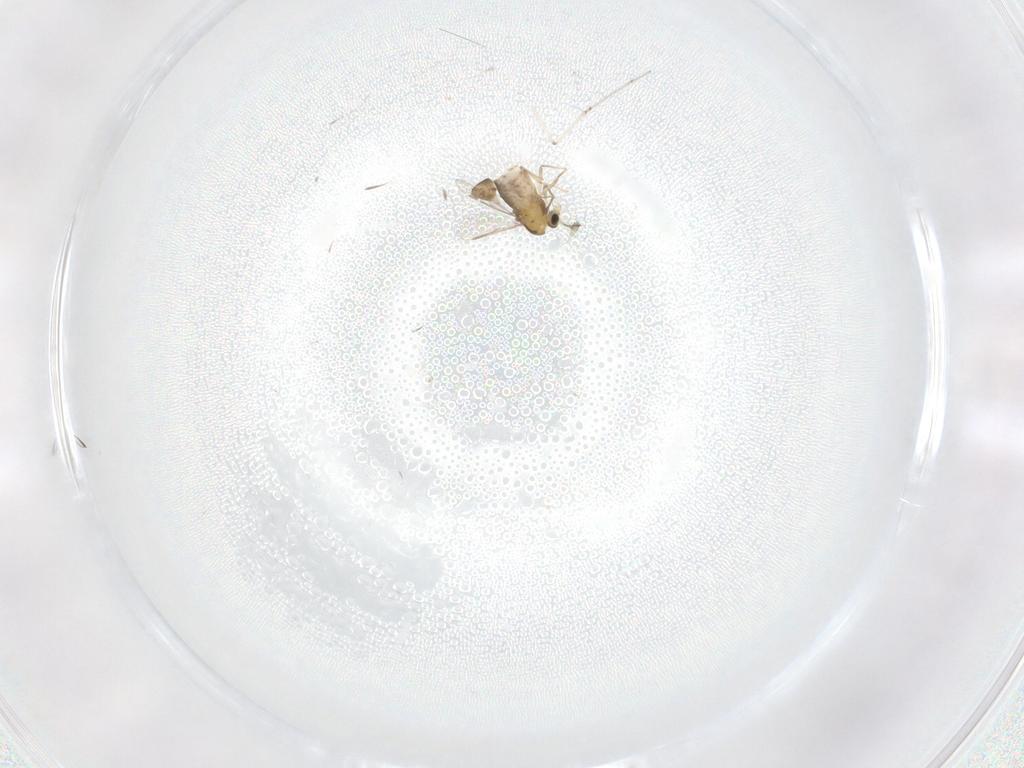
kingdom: Animalia
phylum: Arthropoda
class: Insecta
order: Diptera
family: Chironomidae
